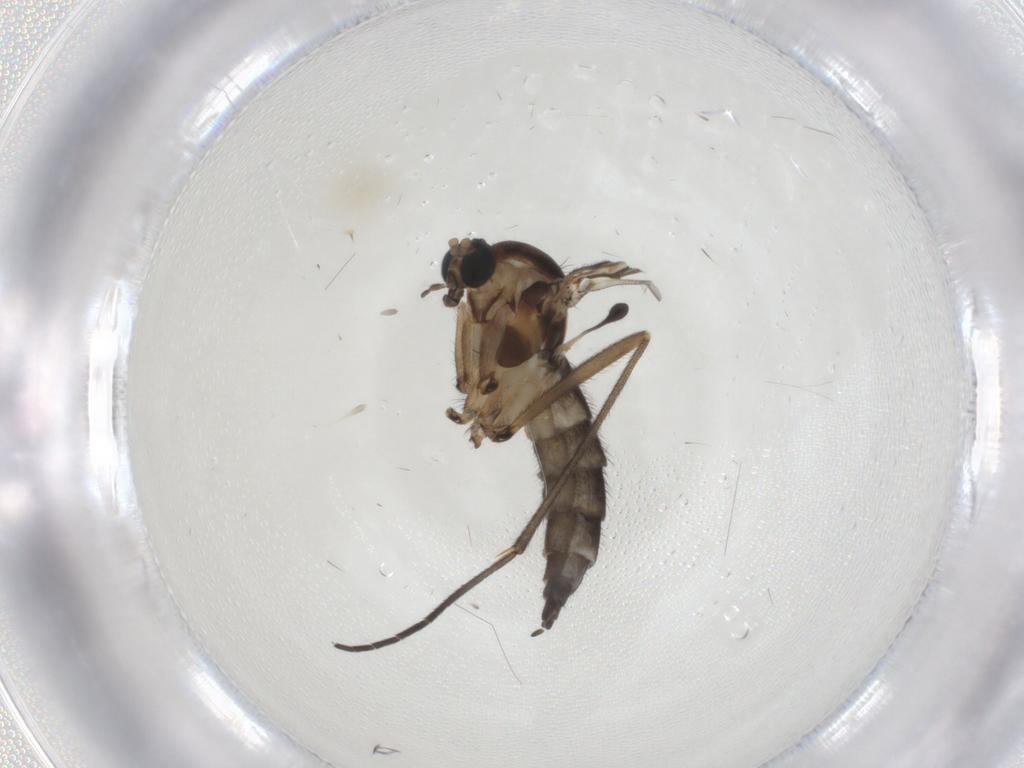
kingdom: Animalia
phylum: Arthropoda
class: Insecta
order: Diptera
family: Sciaridae
